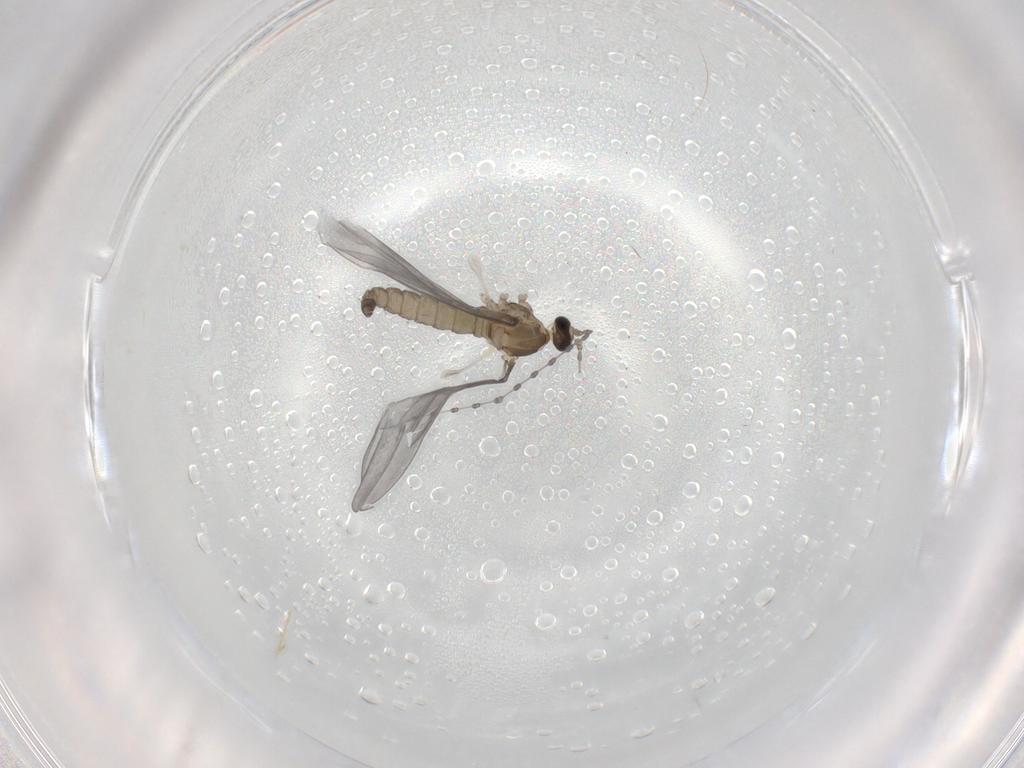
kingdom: Animalia
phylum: Arthropoda
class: Insecta
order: Diptera
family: Cecidomyiidae
